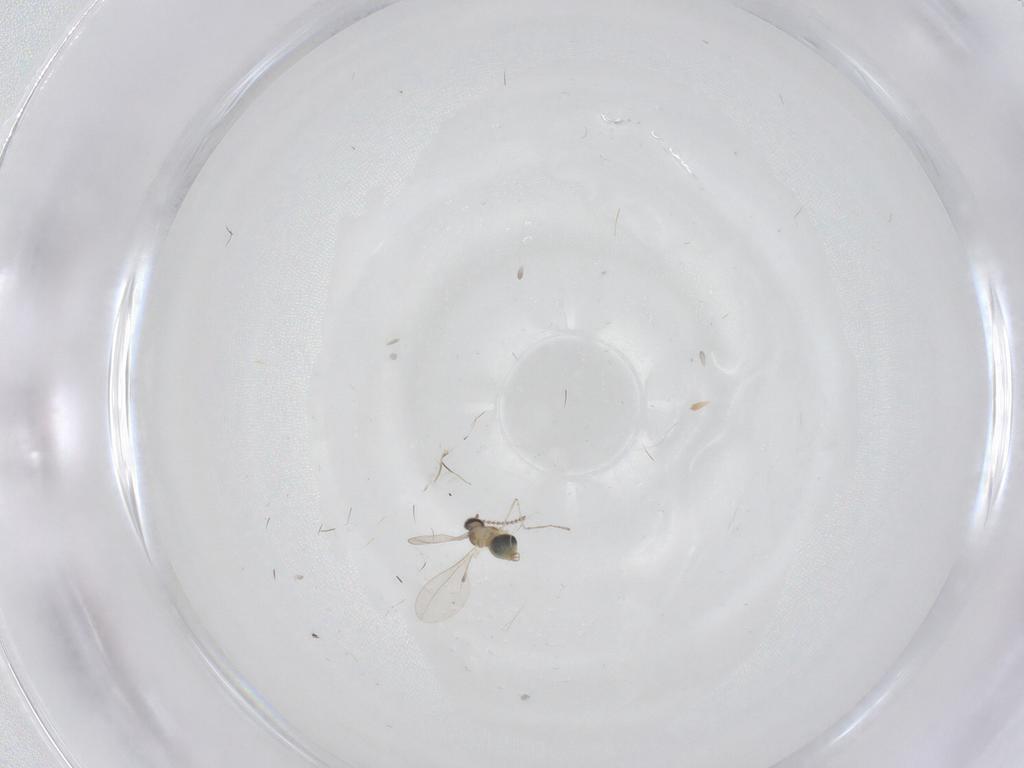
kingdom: Animalia
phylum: Arthropoda
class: Insecta
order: Diptera
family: Cecidomyiidae
